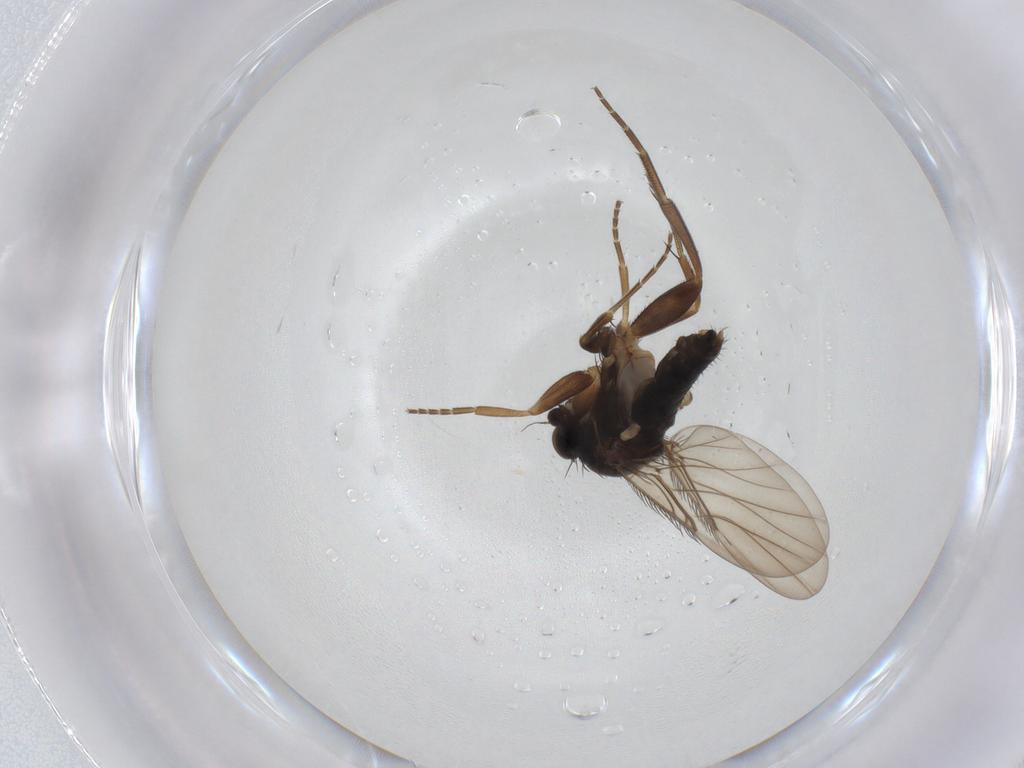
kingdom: Animalia
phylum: Arthropoda
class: Insecta
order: Diptera
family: Phoridae
